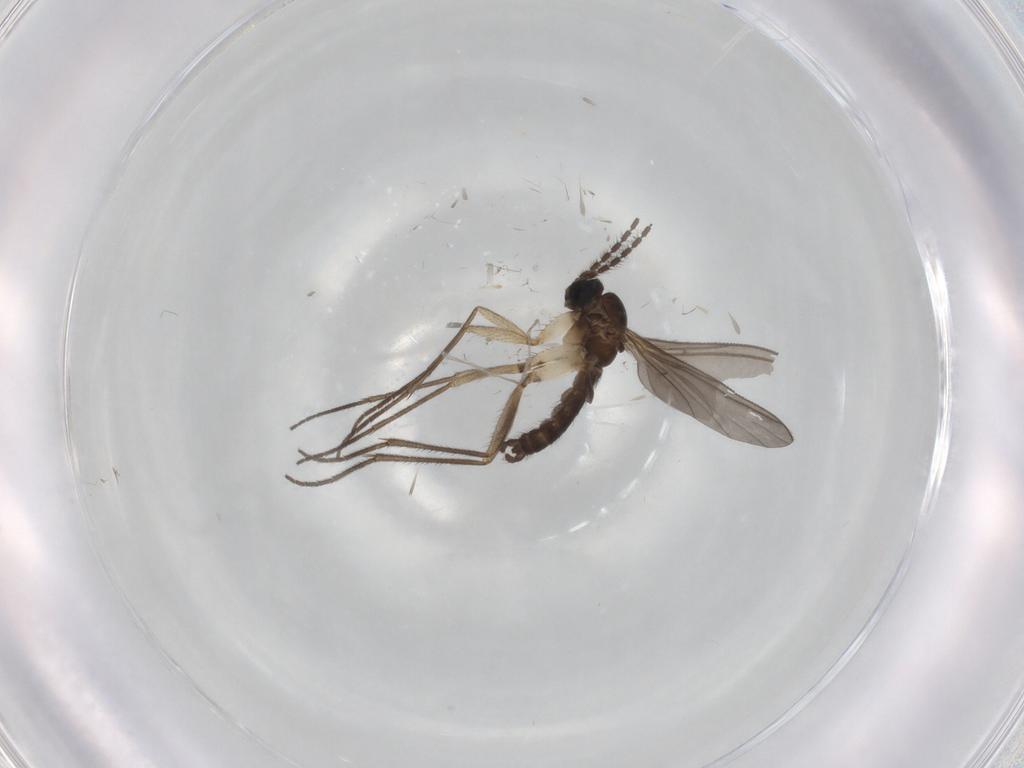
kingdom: Animalia
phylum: Arthropoda
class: Insecta
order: Diptera
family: Sciaridae
